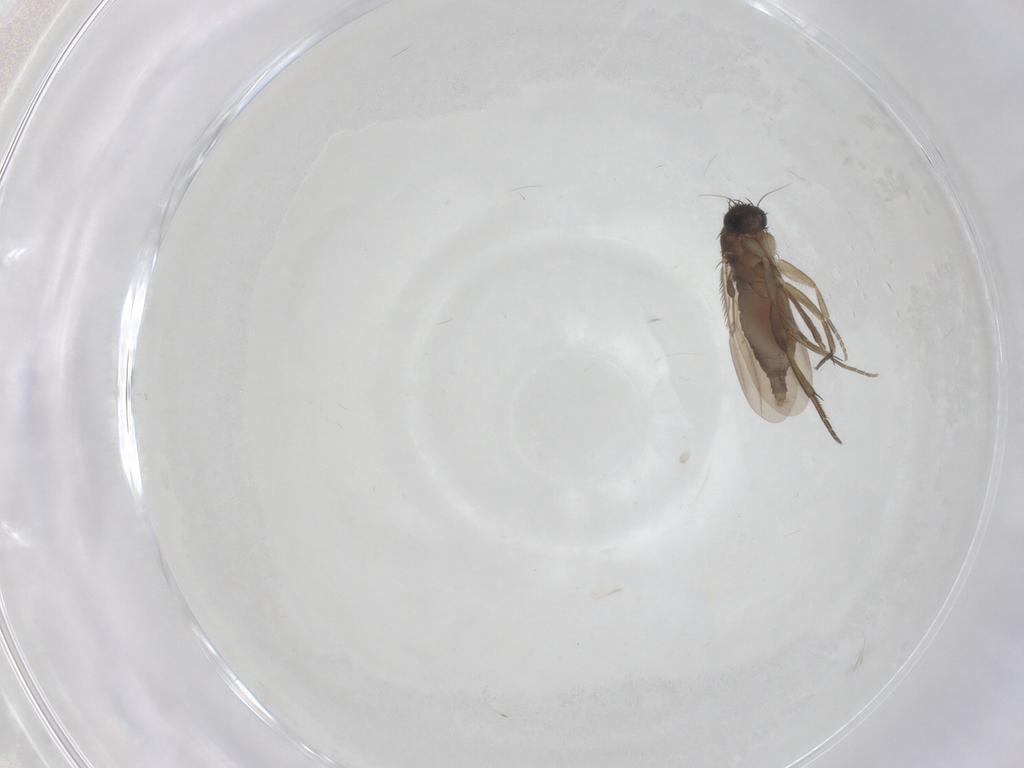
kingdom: Animalia
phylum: Arthropoda
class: Insecta
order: Diptera
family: Phoridae
